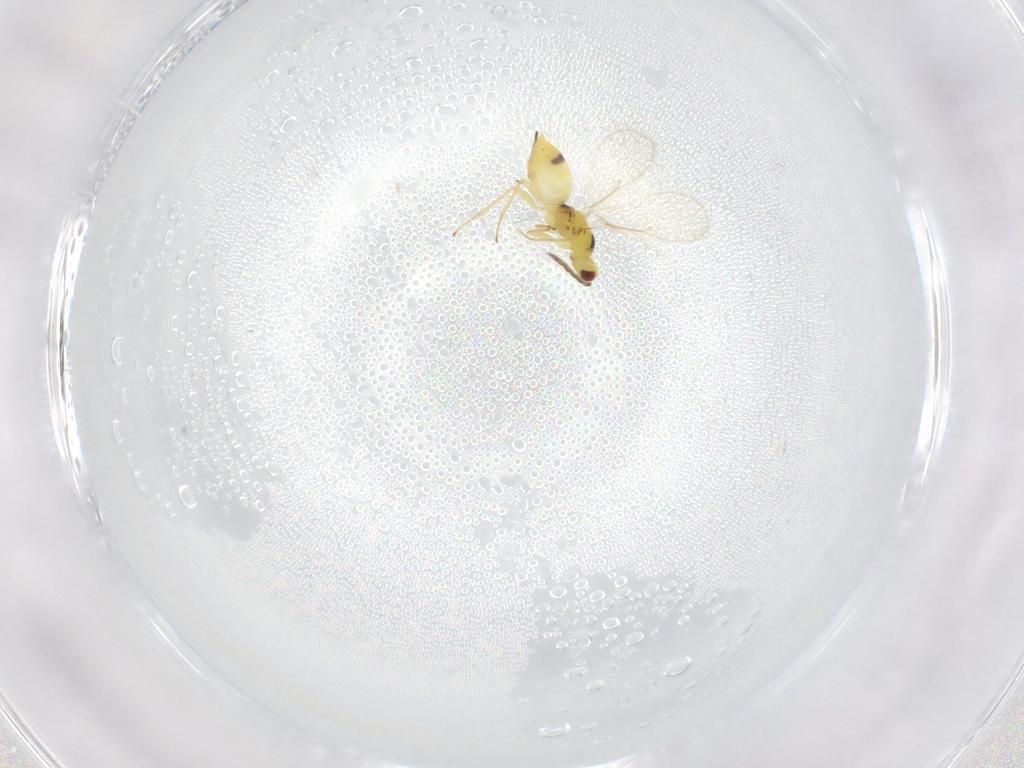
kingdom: Animalia
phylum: Arthropoda
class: Insecta
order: Hymenoptera
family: Eulophidae
